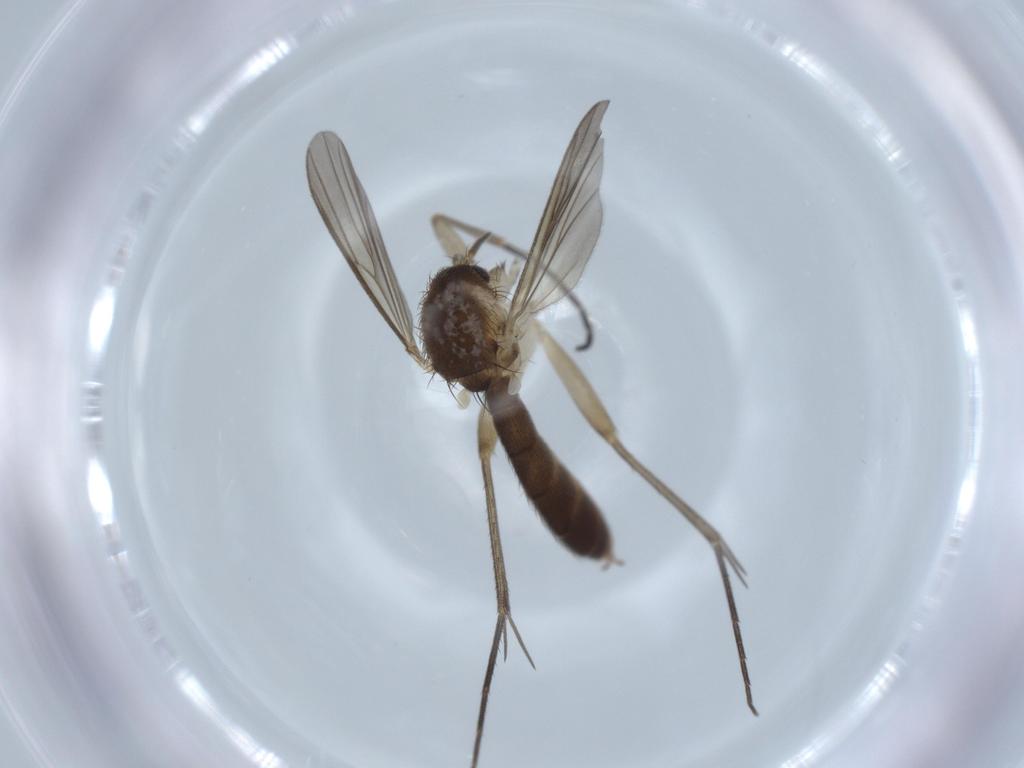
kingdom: Animalia
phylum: Arthropoda
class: Insecta
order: Diptera
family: Mycetophilidae
